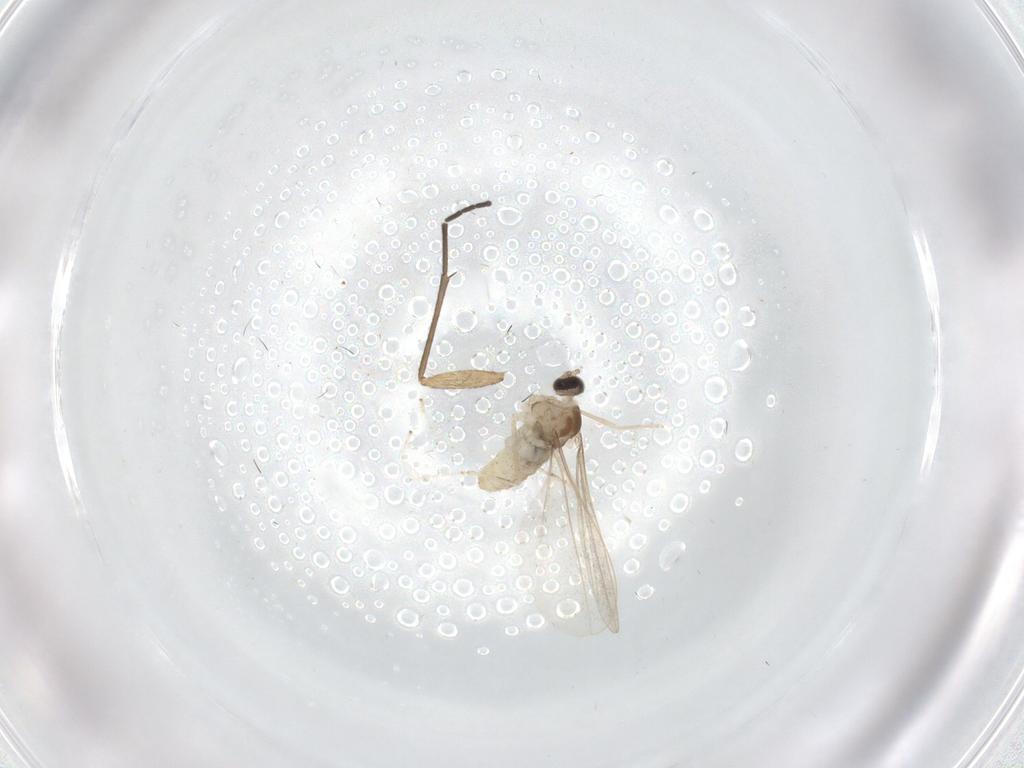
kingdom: Animalia
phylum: Arthropoda
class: Insecta
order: Diptera
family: Cecidomyiidae
